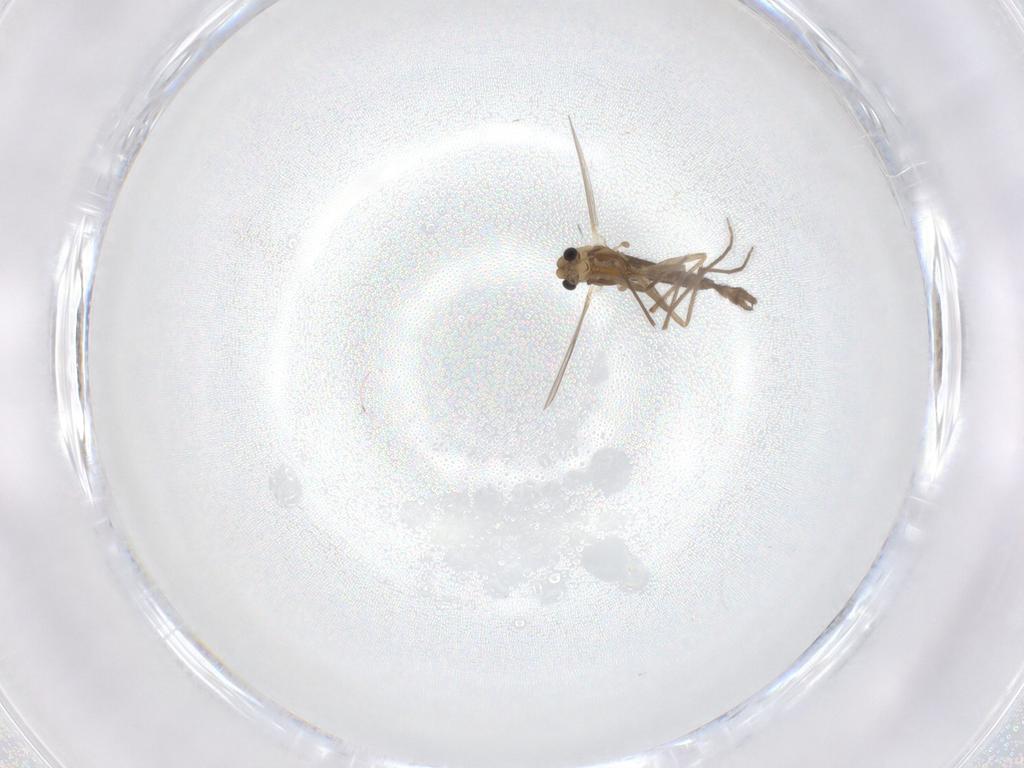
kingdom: Animalia
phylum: Arthropoda
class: Insecta
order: Diptera
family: Chironomidae
